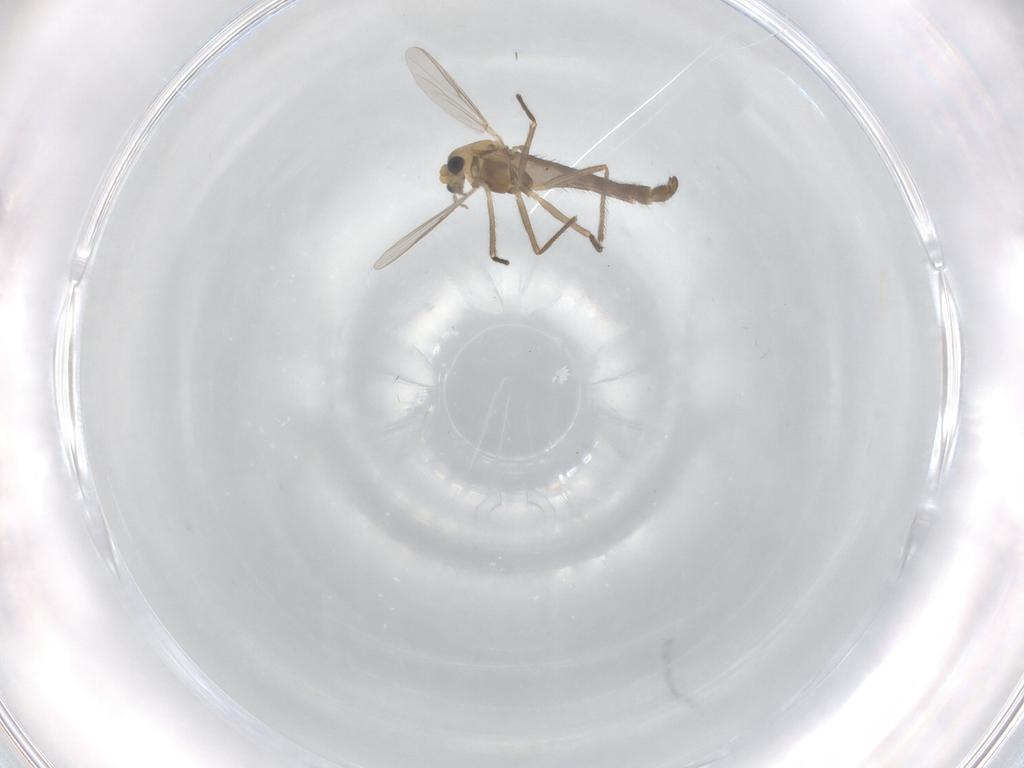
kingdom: Animalia
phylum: Arthropoda
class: Insecta
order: Diptera
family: Chironomidae
